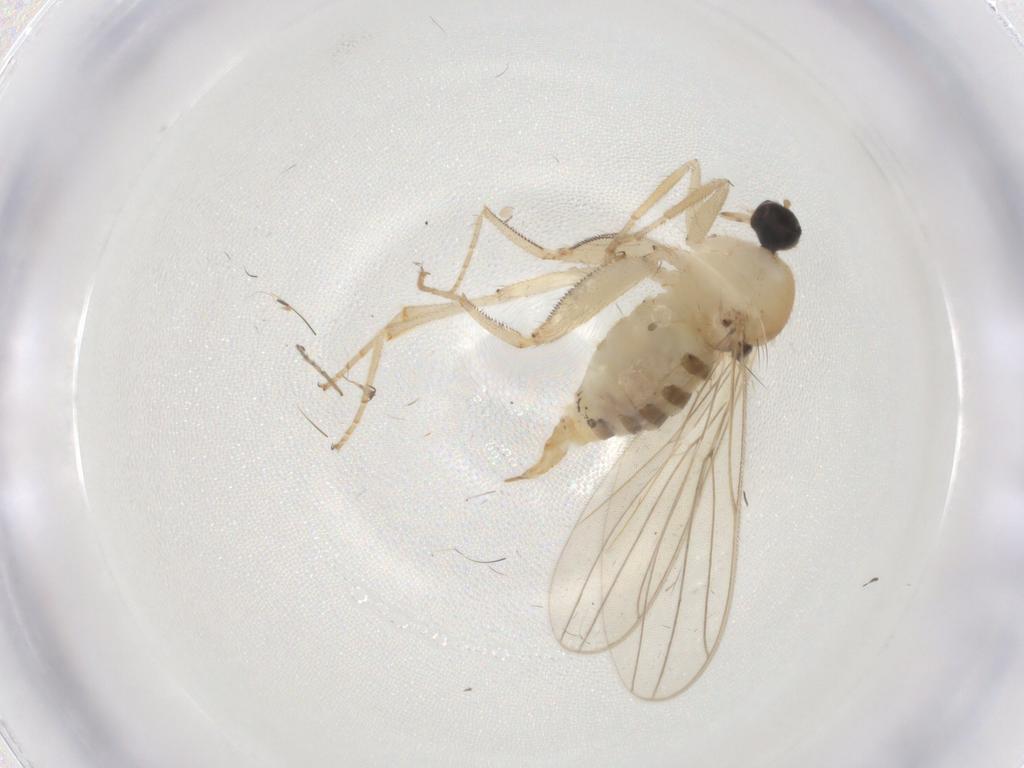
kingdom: Animalia
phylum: Arthropoda
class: Insecta
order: Diptera
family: Hybotidae
